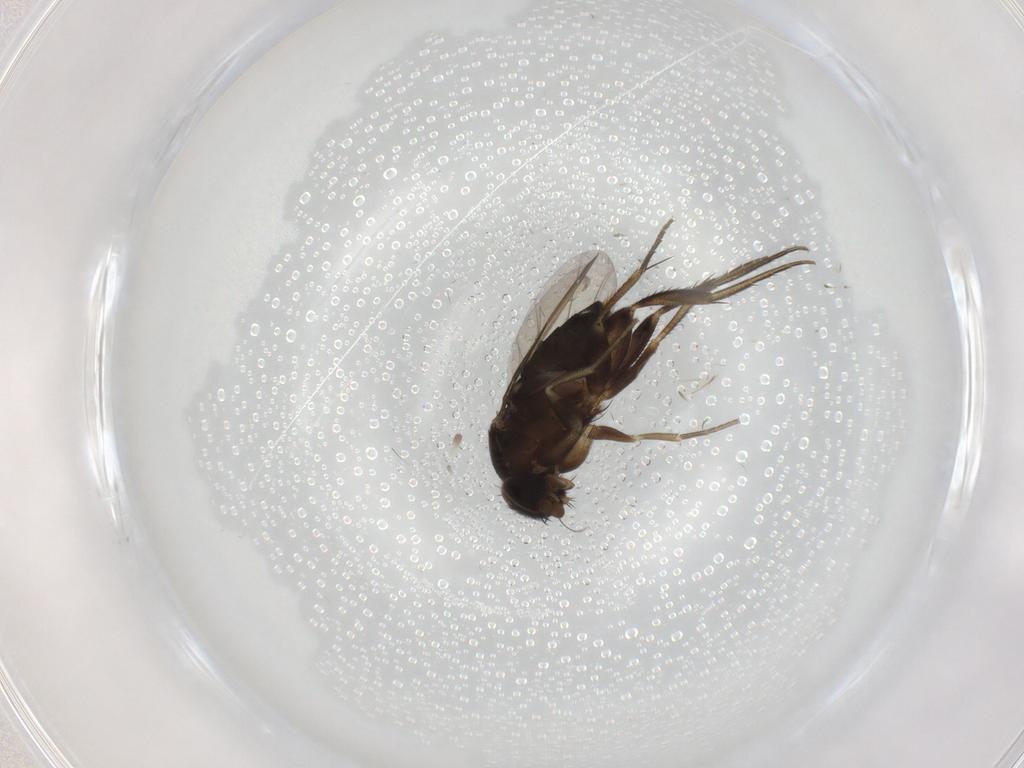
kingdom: Animalia
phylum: Arthropoda
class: Insecta
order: Diptera
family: Phoridae
